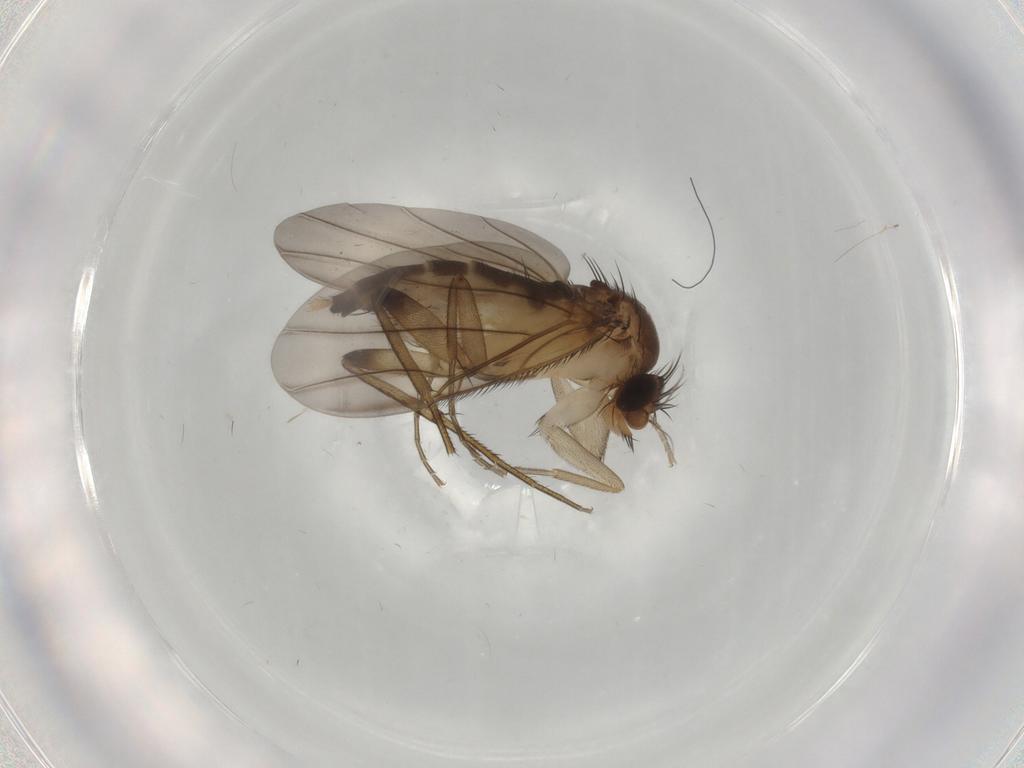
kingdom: Animalia
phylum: Arthropoda
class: Insecta
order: Diptera
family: Phoridae
